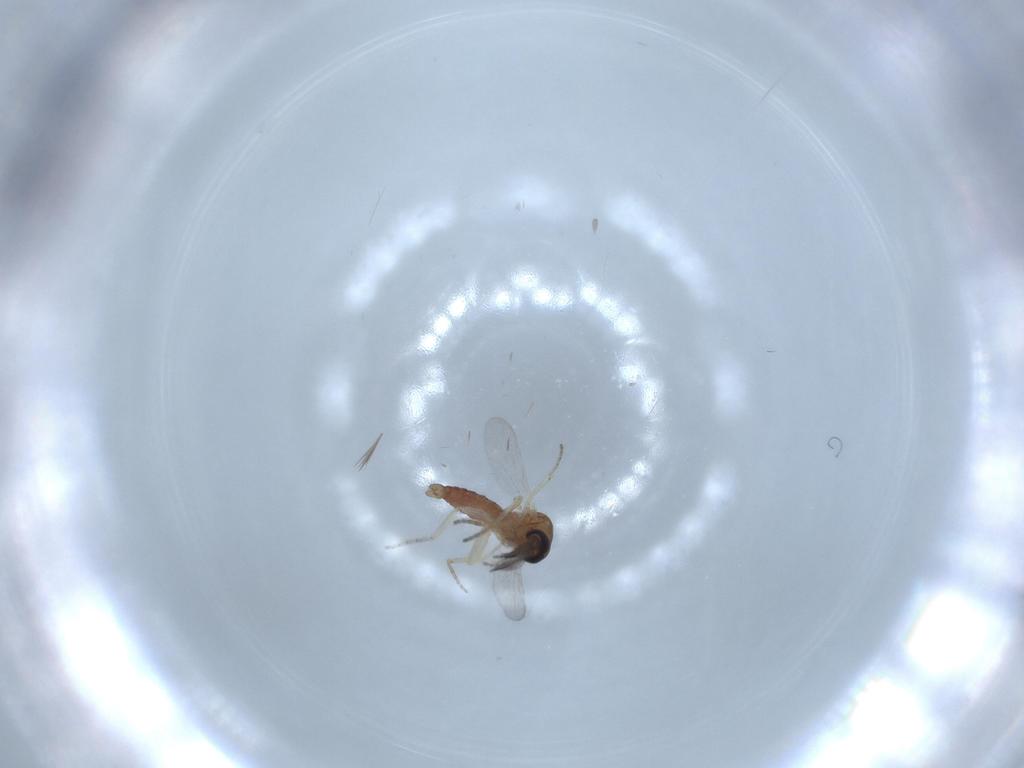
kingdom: Animalia
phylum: Arthropoda
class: Insecta
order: Diptera
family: Ceratopogonidae
